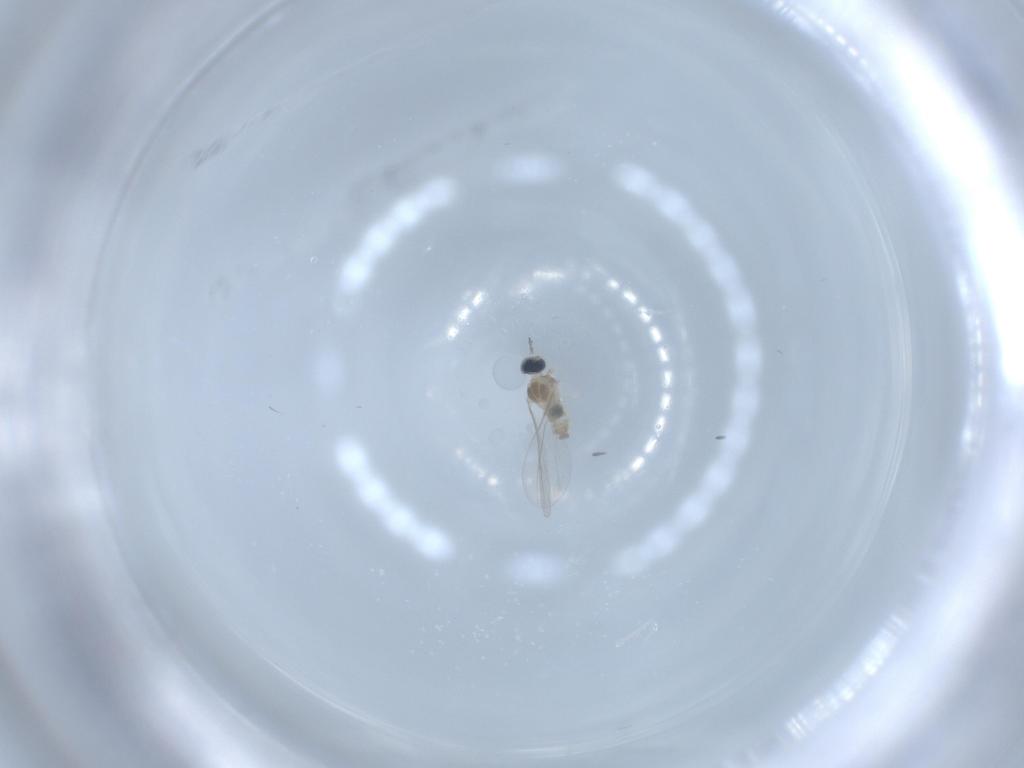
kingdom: Animalia
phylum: Arthropoda
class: Insecta
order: Diptera
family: Cecidomyiidae
